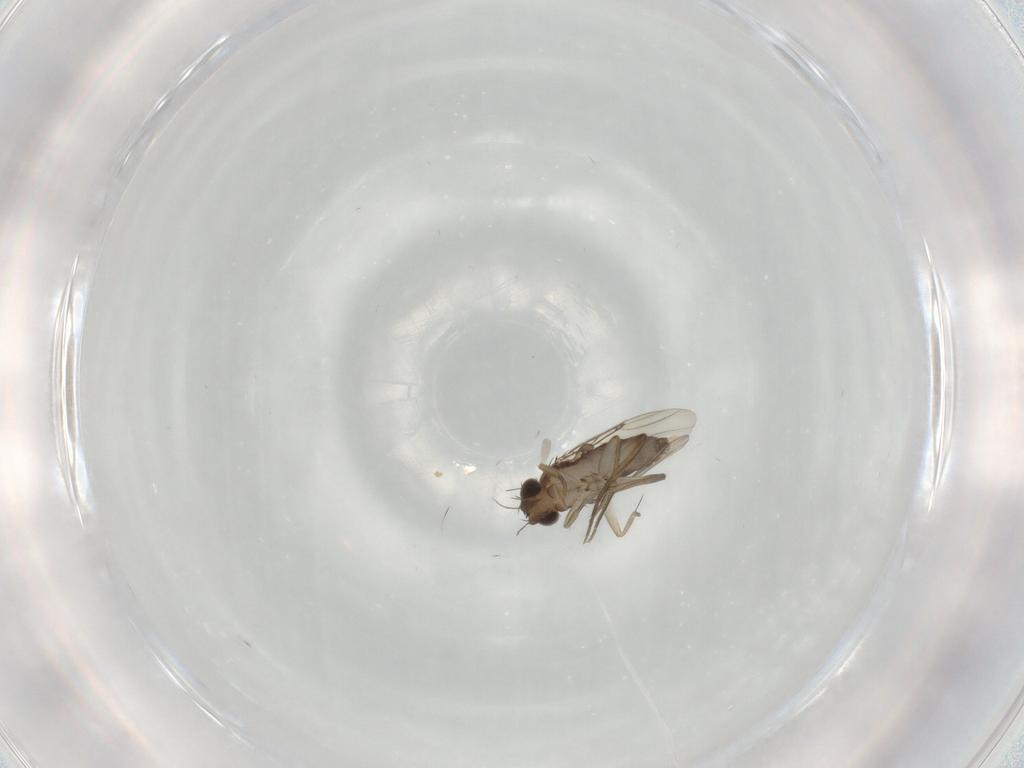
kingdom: Animalia
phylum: Arthropoda
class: Insecta
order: Diptera
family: Phoridae
